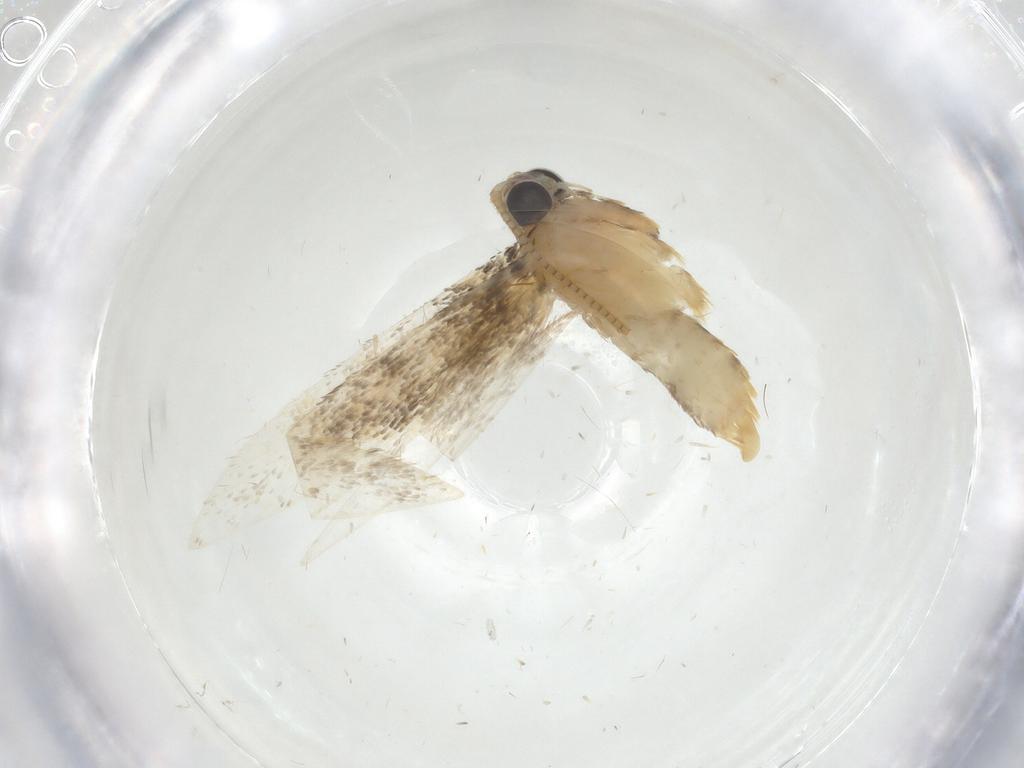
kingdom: Animalia
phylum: Arthropoda
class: Insecta
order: Lepidoptera
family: Tineidae
